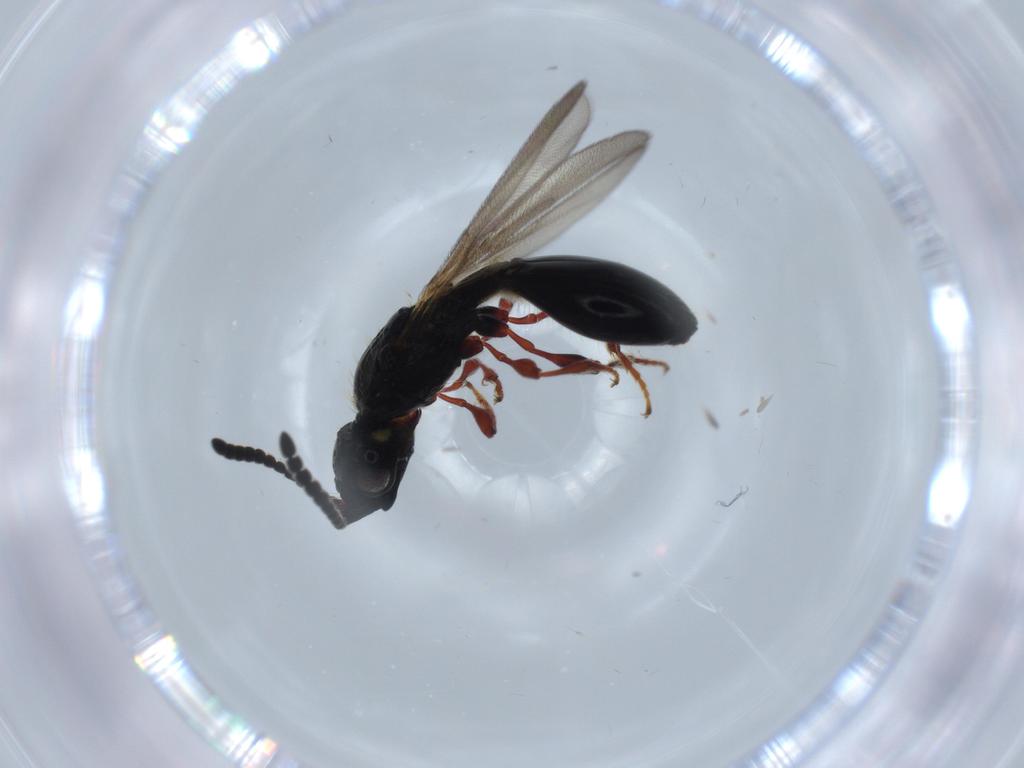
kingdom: Animalia
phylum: Arthropoda
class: Insecta
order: Hymenoptera
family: Diapriidae
